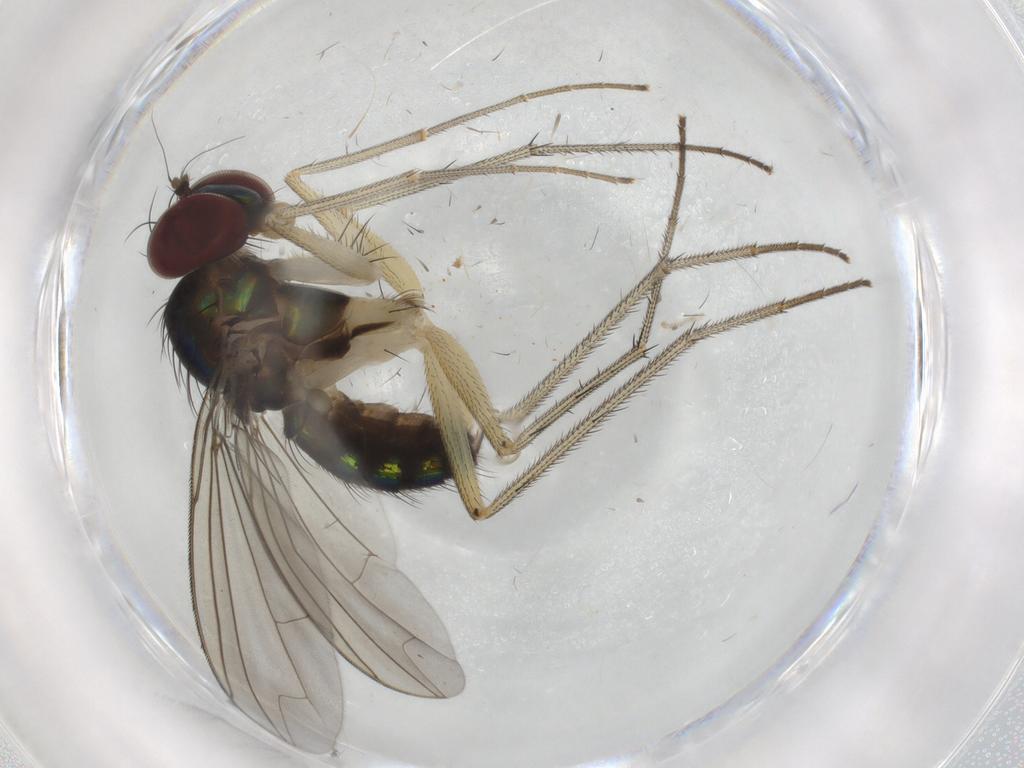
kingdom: Animalia
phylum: Arthropoda
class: Insecta
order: Diptera
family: Dolichopodidae
